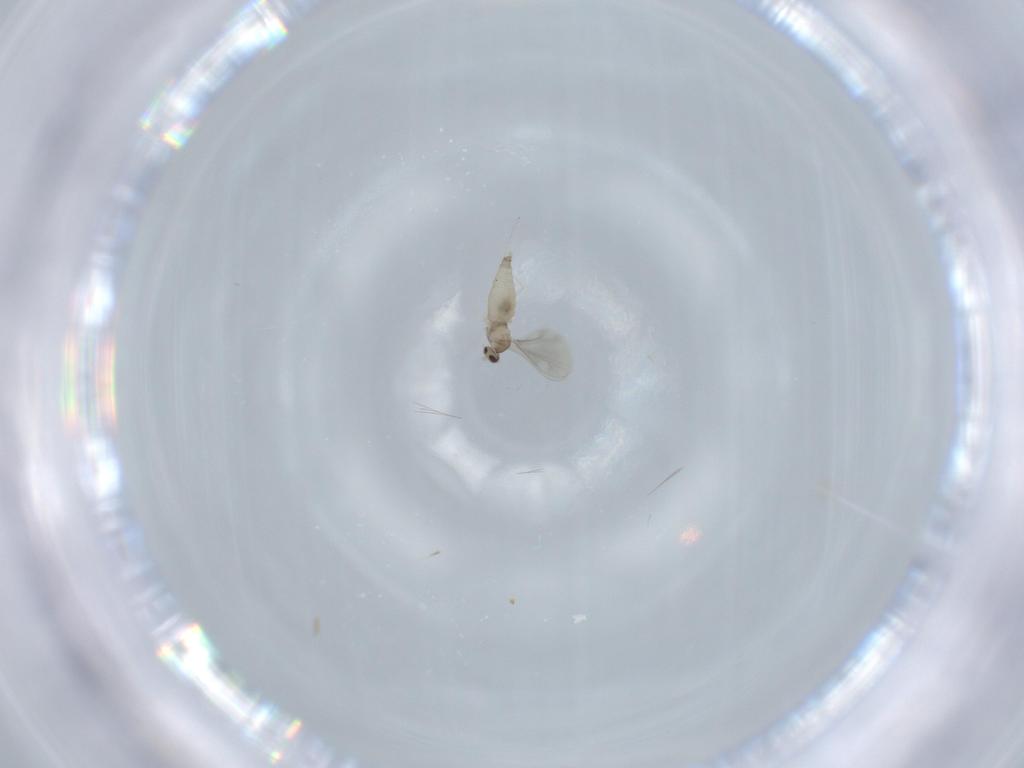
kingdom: Animalia
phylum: Arthropoda
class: Insecta
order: Diptera
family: Cecidomyiidae
